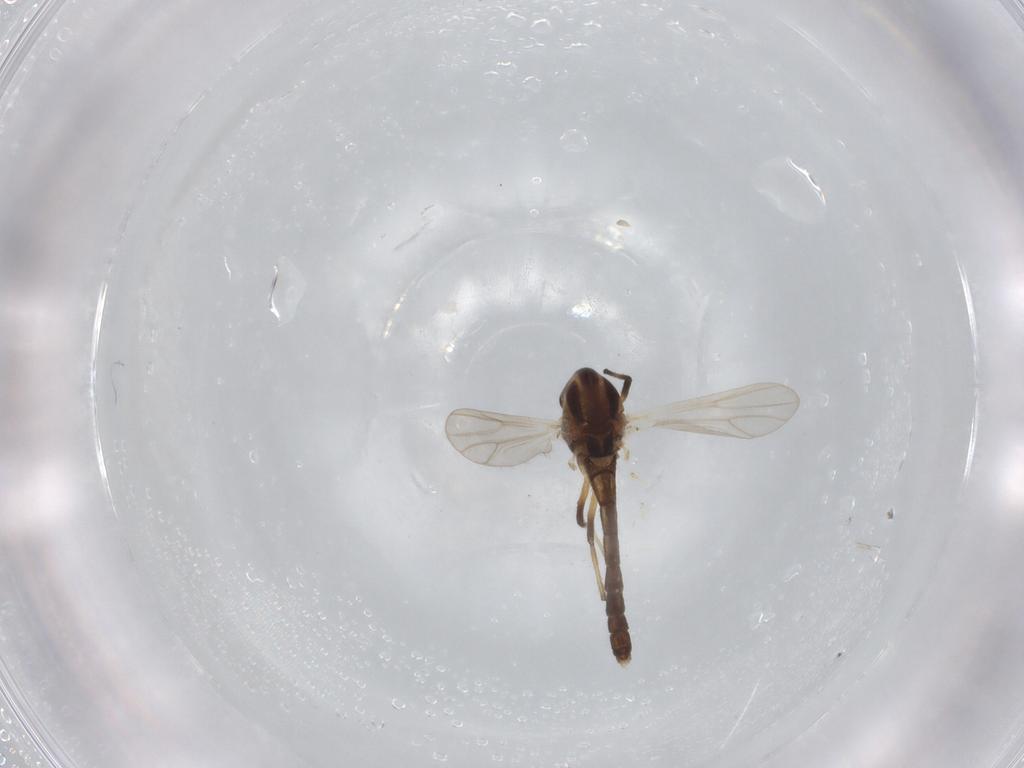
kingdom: Animalia
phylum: Arthropoda
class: Insecta
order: Diptera
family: Chironomidae
